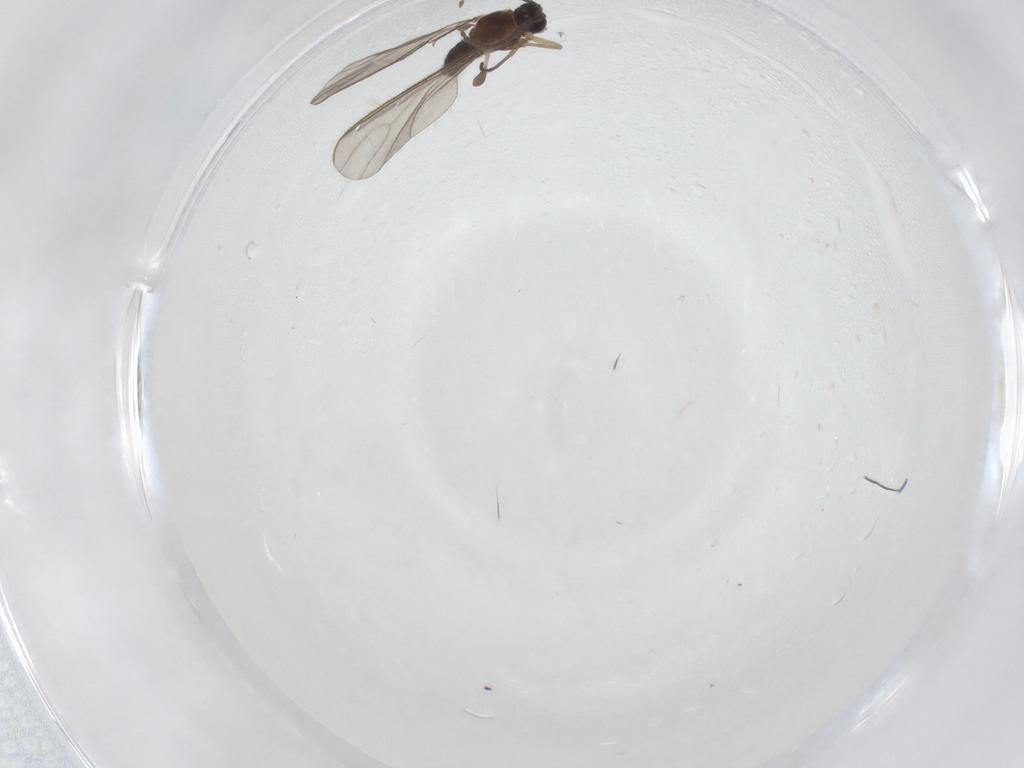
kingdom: Animalia
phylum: Arthropoda
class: Insecta
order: Diptera
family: Sciaridae
